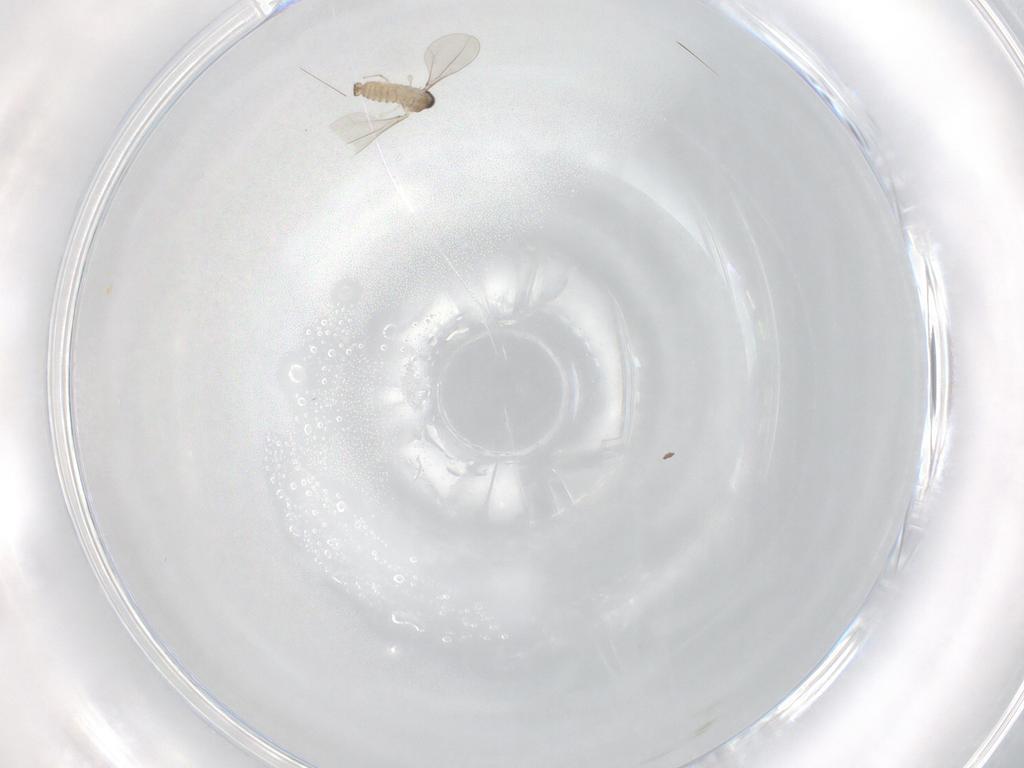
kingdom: Animalia
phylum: Arthropoda
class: Insecta
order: Diptera
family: Cecidomyiidae
